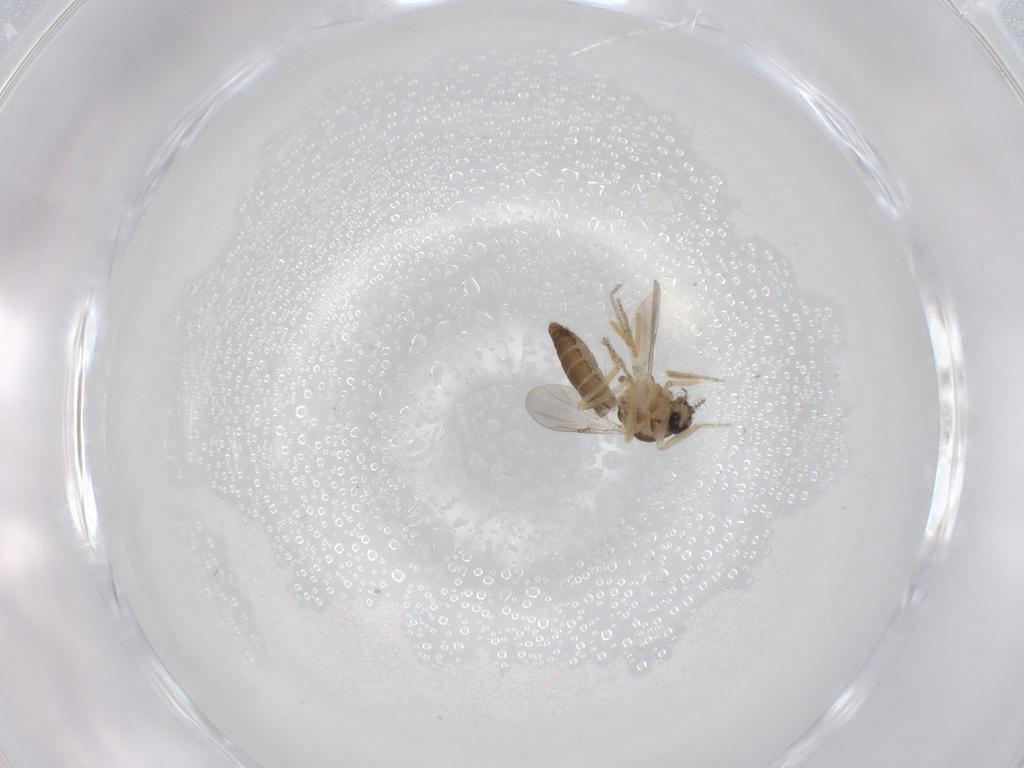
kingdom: Animalia
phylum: Arthropoda
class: Insecta
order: Diptera
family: Ceratopogonidae
